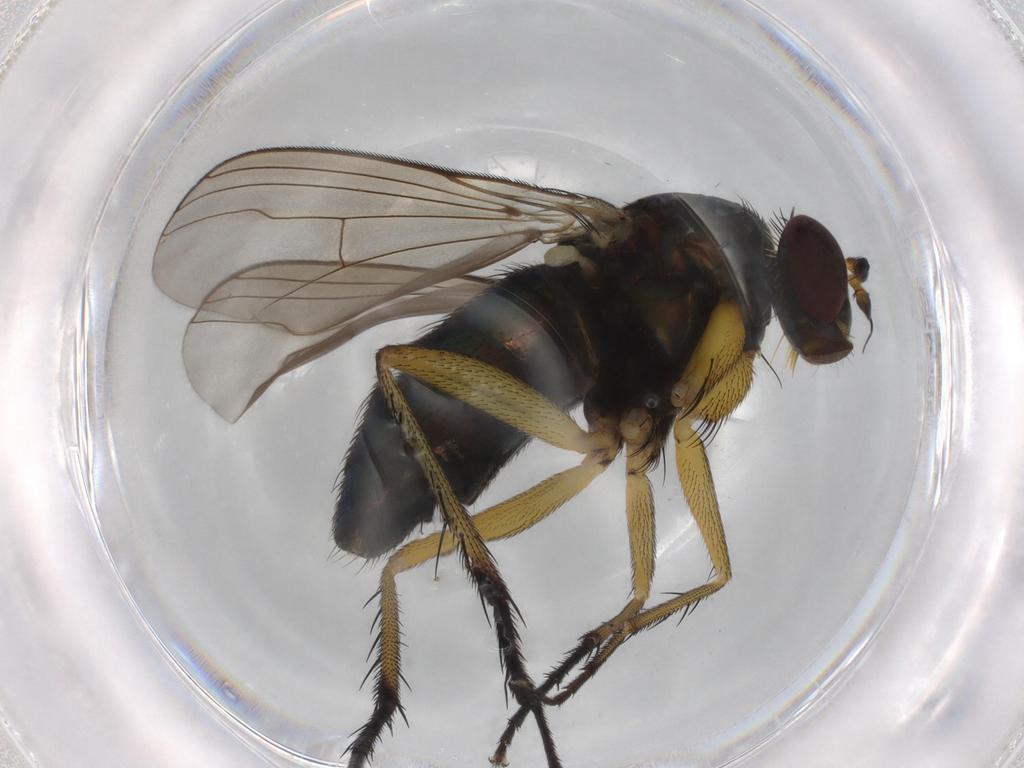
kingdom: Animalia
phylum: Arthropoda
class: Insecta
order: Diptera
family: Dolichopodidae
